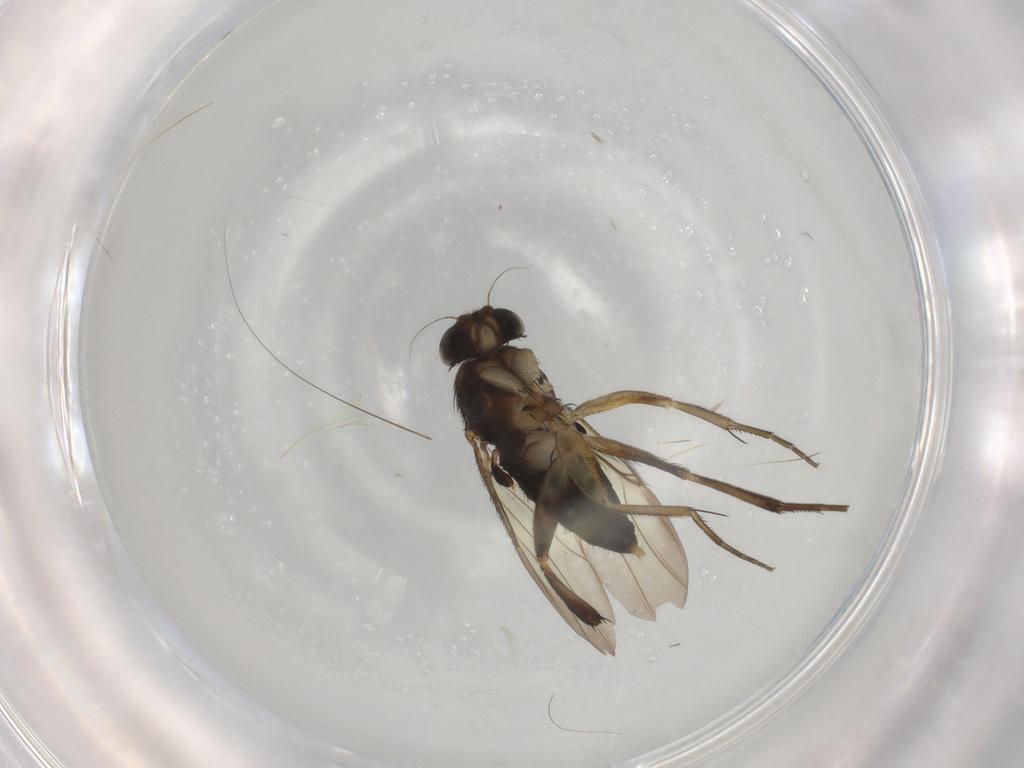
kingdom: Animalia
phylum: Arthropoda
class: Insecta
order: Diptera
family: Phoridae
